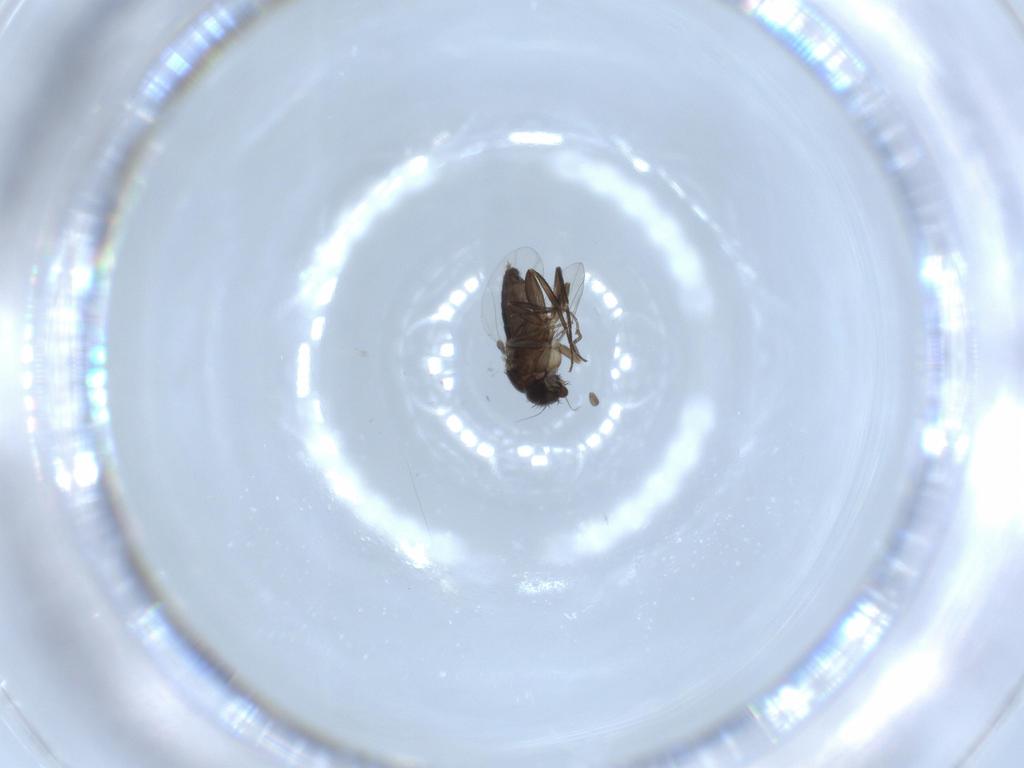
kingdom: Animalia
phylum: Arthropoda
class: Insecta
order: Diptera
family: Phoridae
